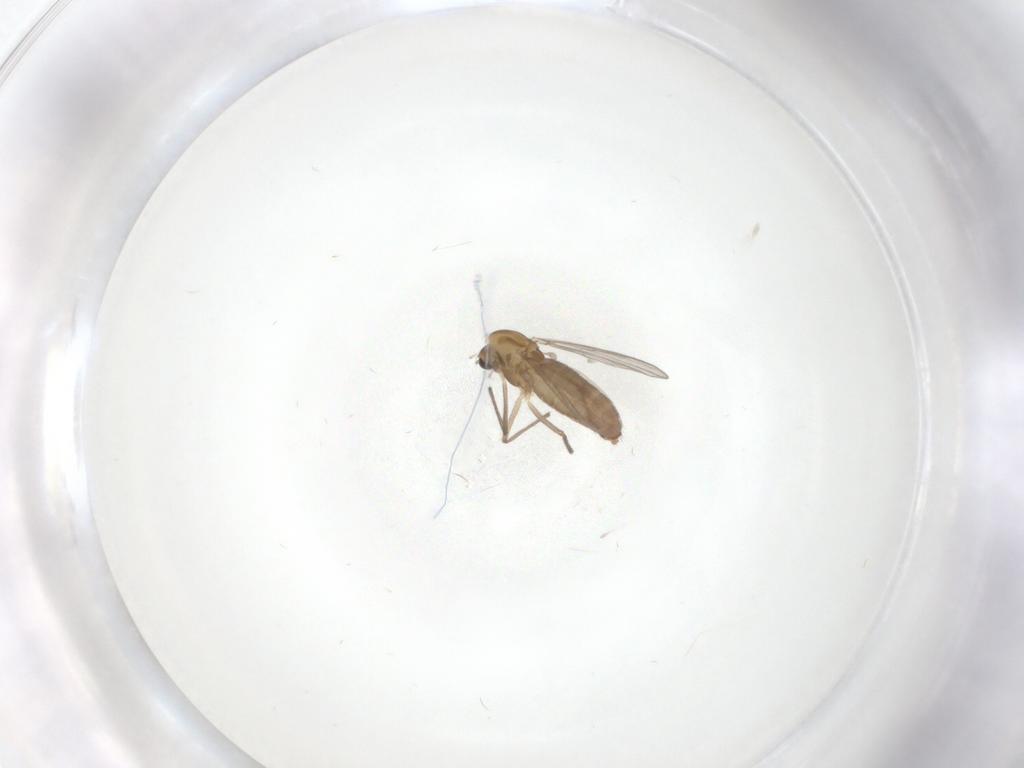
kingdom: Animalia
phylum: Arthropoda
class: Insecta
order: Diptera
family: Chironomidae
